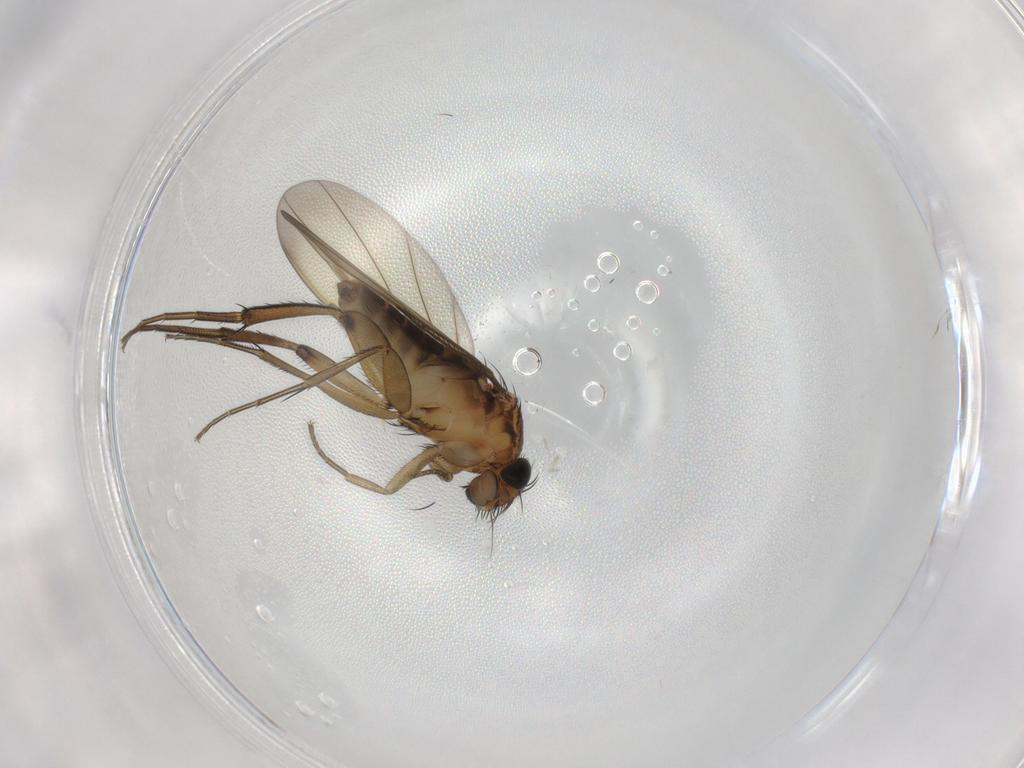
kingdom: Animalia
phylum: Arthropoda
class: Insecta
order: Diptera
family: Phoridae
